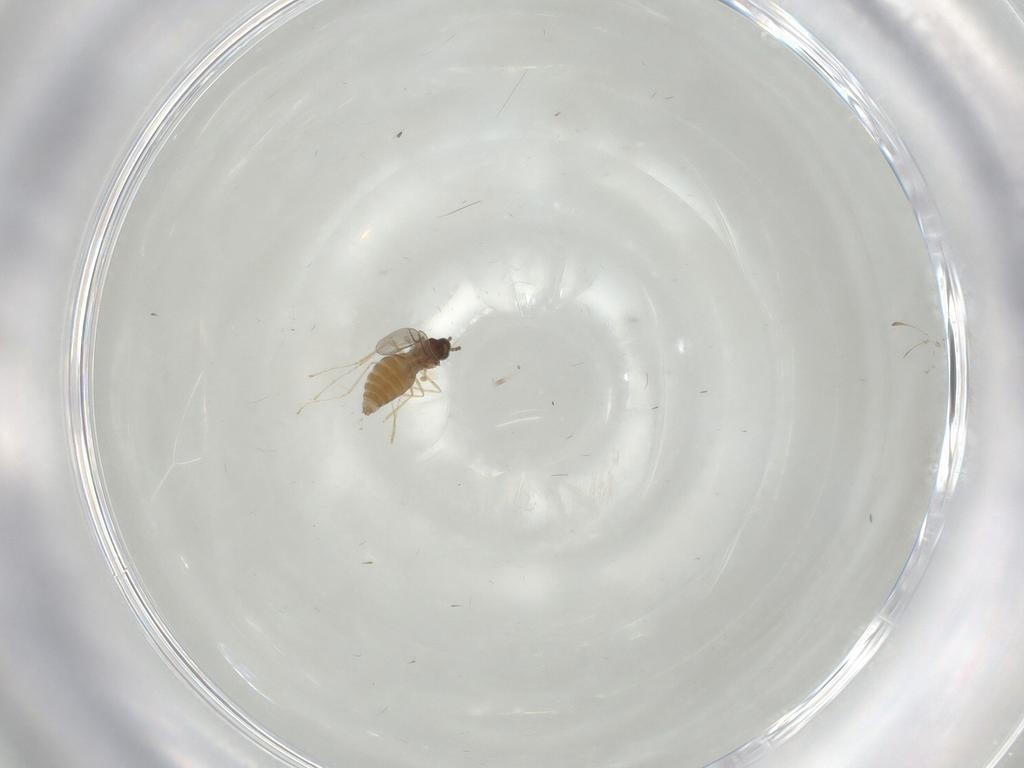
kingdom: Animalia
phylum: Arthropoda
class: Insecta
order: Diptera
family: Cecidomyiidae
